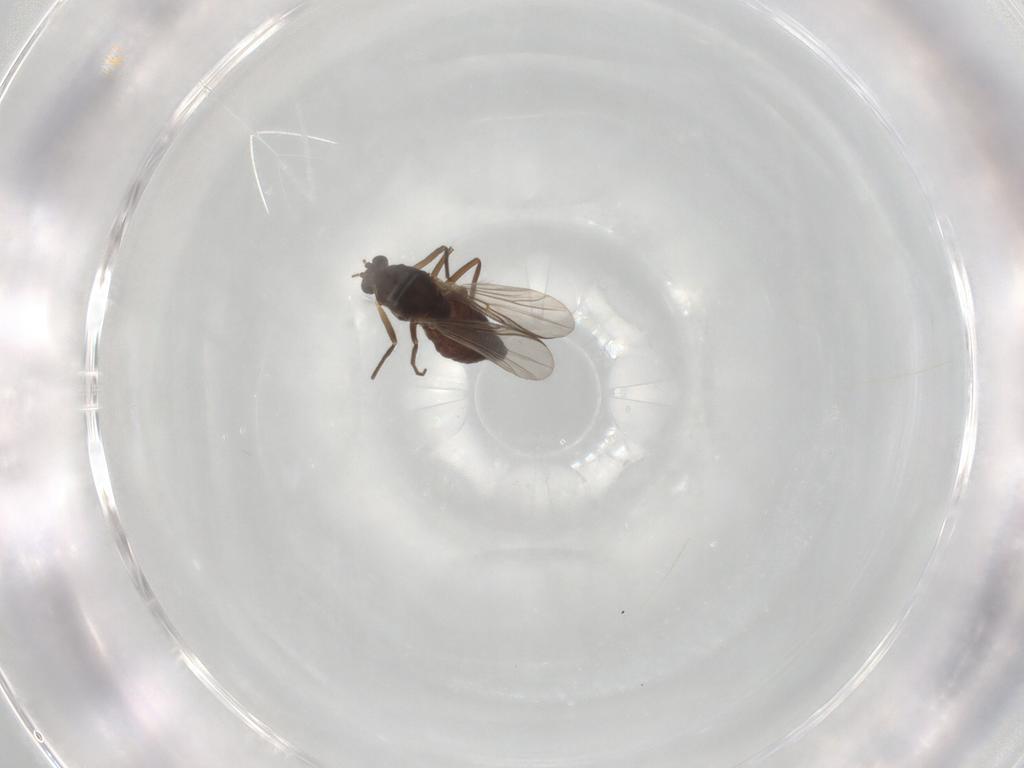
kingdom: Animalia
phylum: Arthropoda
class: Insecta
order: Diptera
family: Chironomidae
